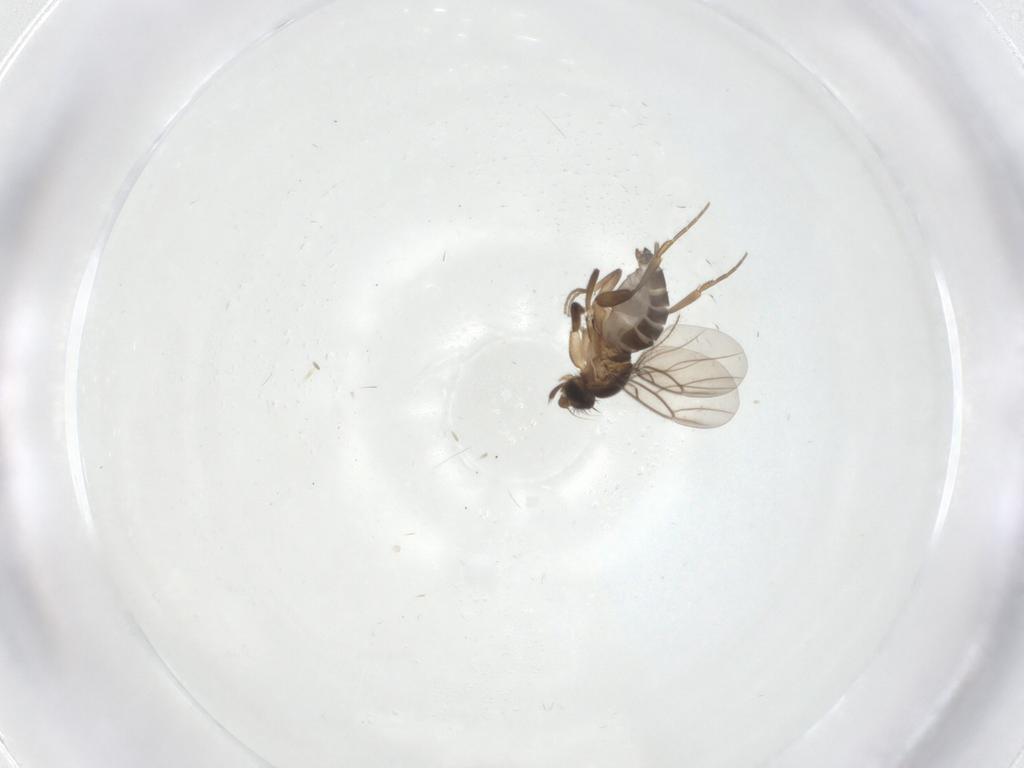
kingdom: Animalia
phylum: Arthropoda
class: Insecta
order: Diptera
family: Phoridae
